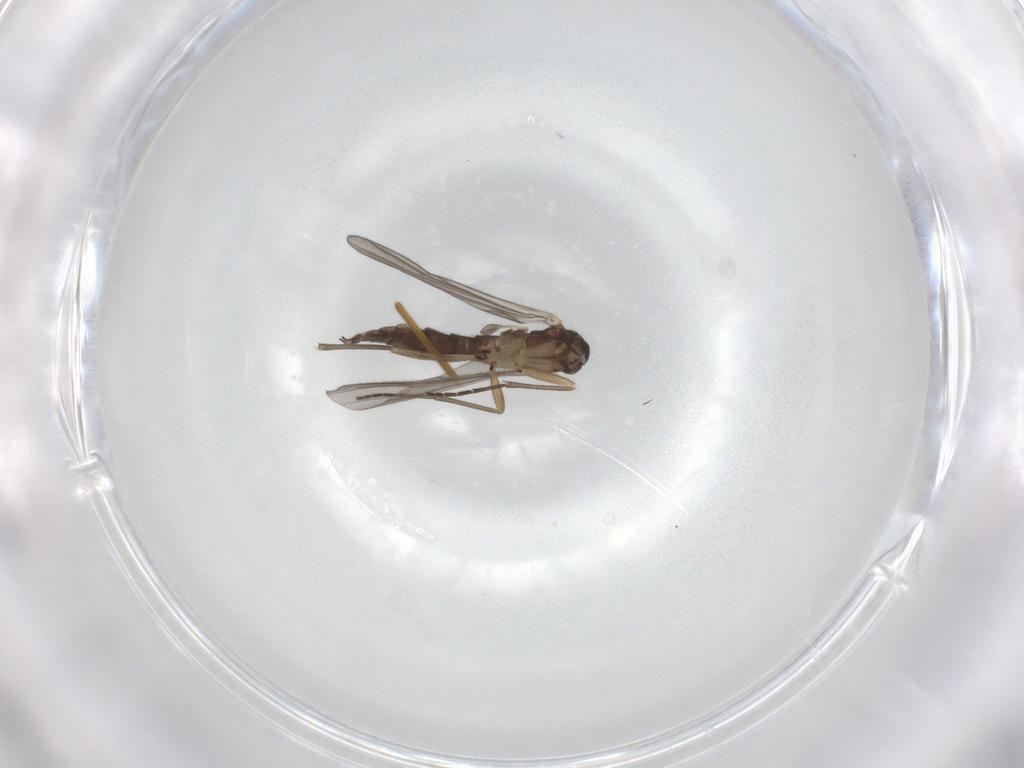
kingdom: Animalia
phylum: Arthropoda
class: Insecta
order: Diptera
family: Sciaridae
